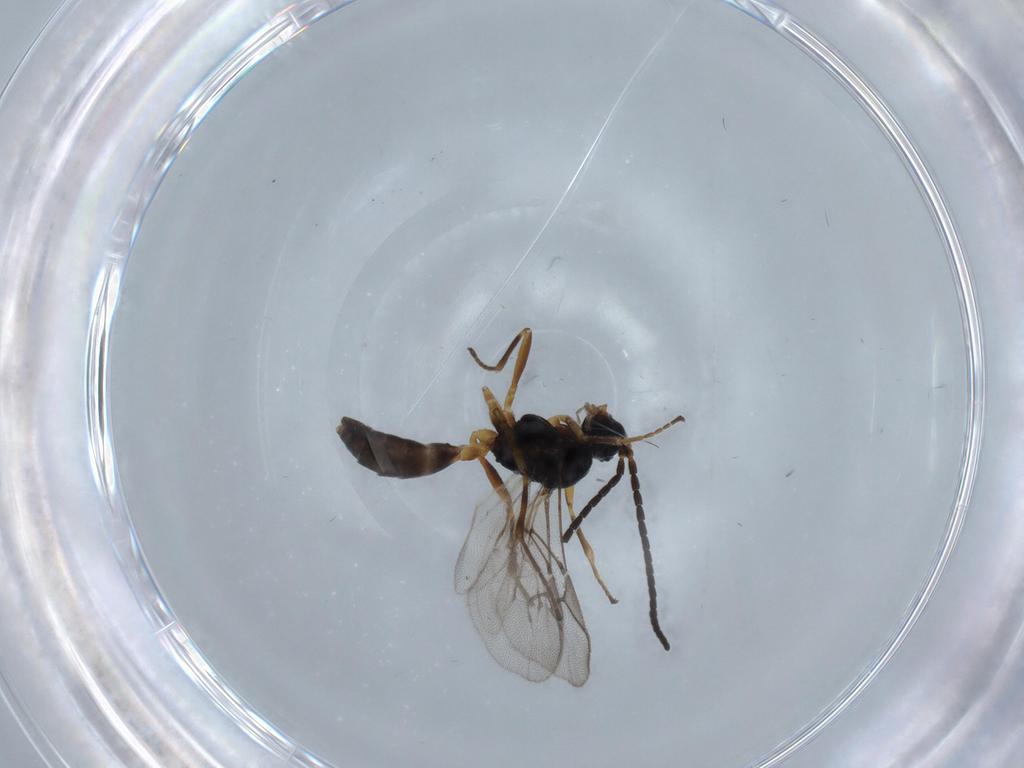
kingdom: Animalia
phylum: Arthropoda
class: Insecta
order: Hymenoptera
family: Braconidae
